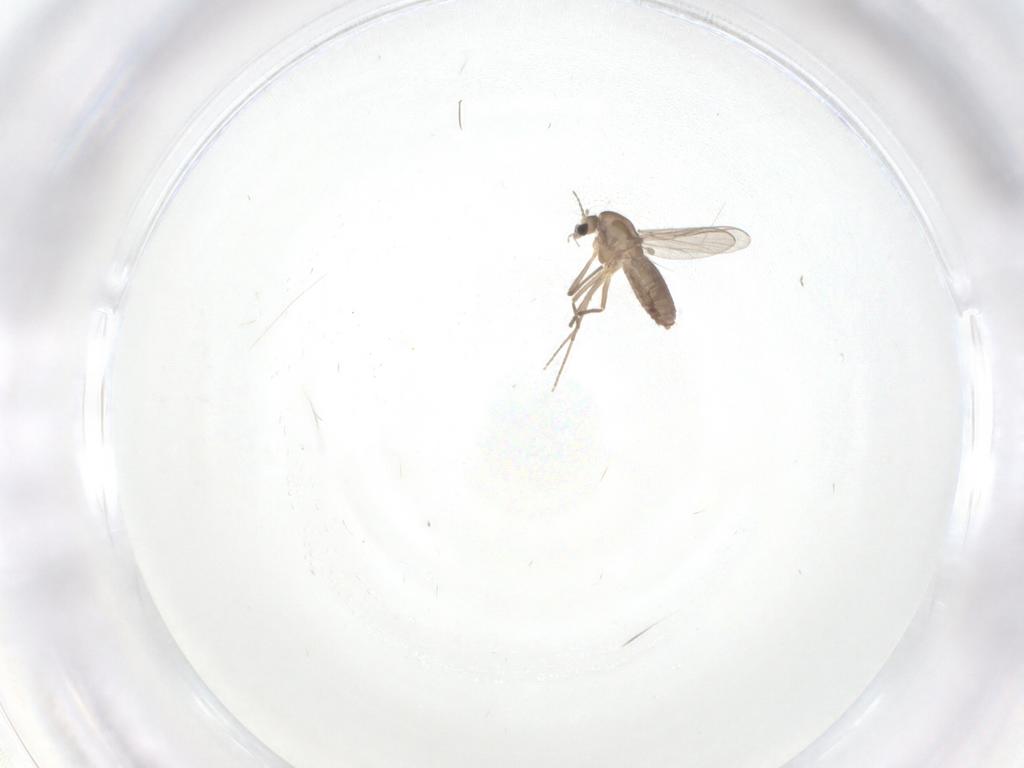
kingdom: Animalia
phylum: Arthropoda
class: Insecta
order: Diptera
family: Chironomidae
